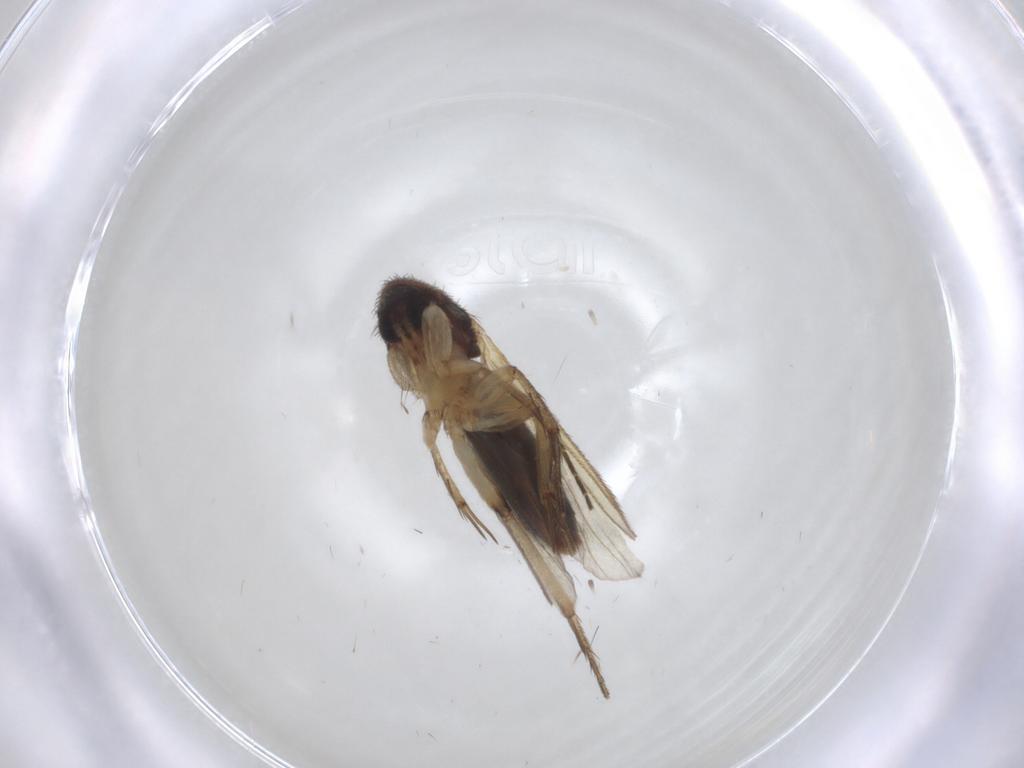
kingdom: Animalia
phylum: Arthropoda
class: Insecta
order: Diptera
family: Mycetophilidae
